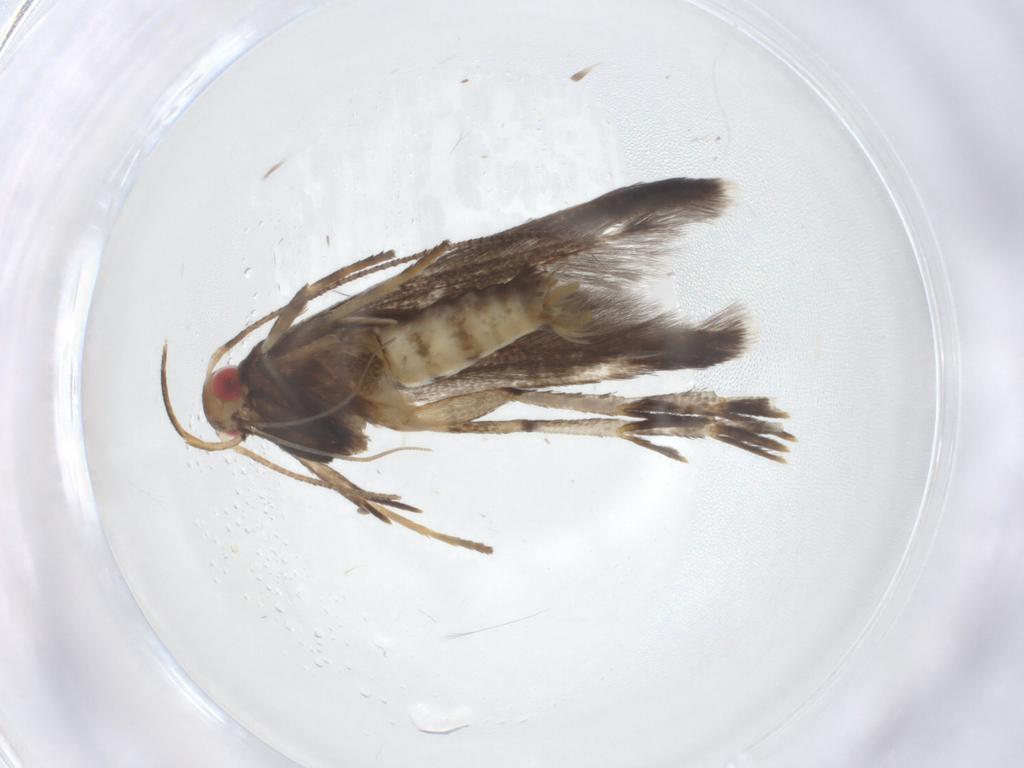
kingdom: Animalia
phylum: Arthropoda
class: Insecta
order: Lepidoptera
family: Gelechiidae
